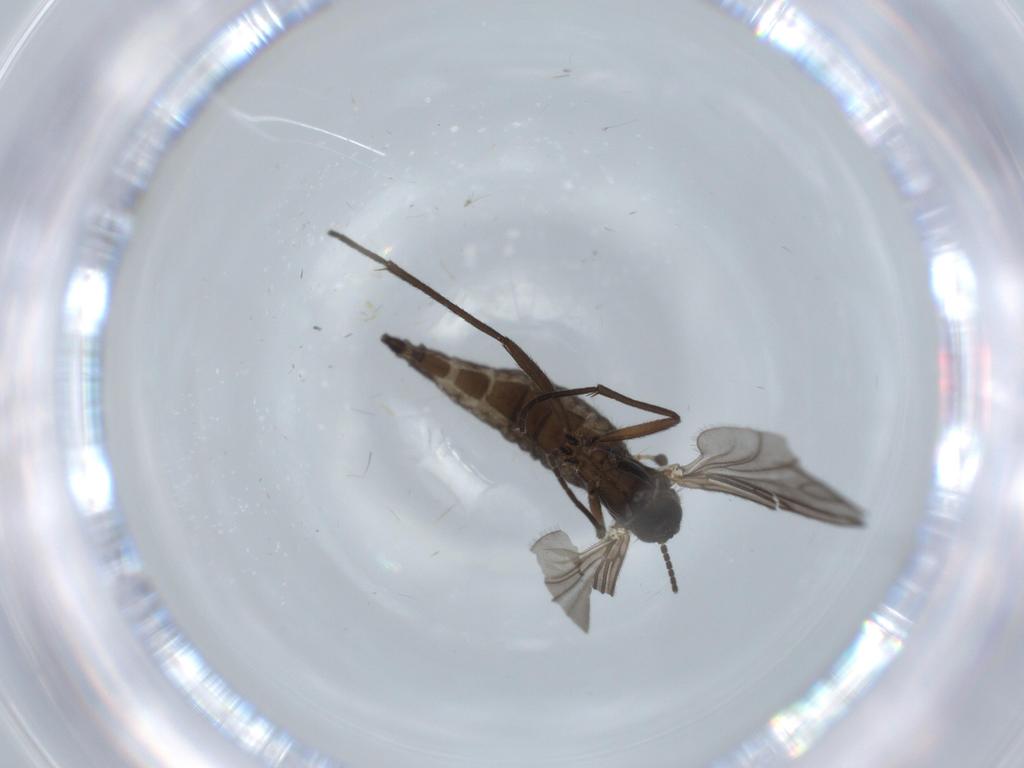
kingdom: Animalia
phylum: Arthropoda
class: Insecta
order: Diptera
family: Sciaridae
